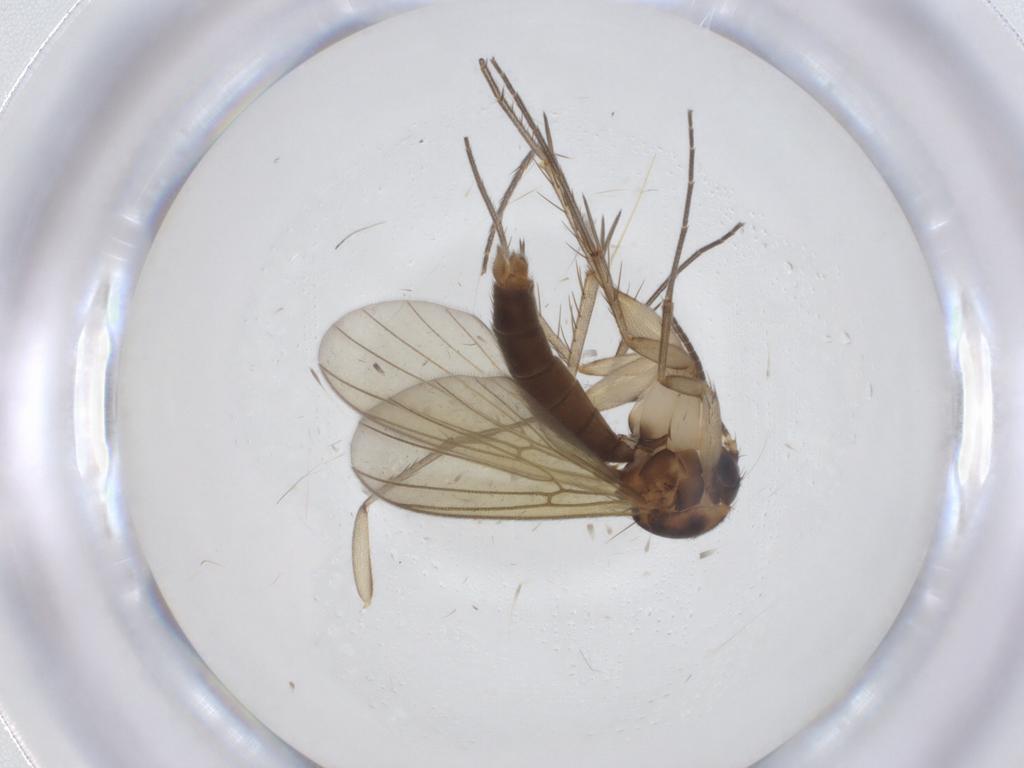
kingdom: Animalia
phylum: Arthropoda
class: Insecta
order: Diptera
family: Mycetophilidae
